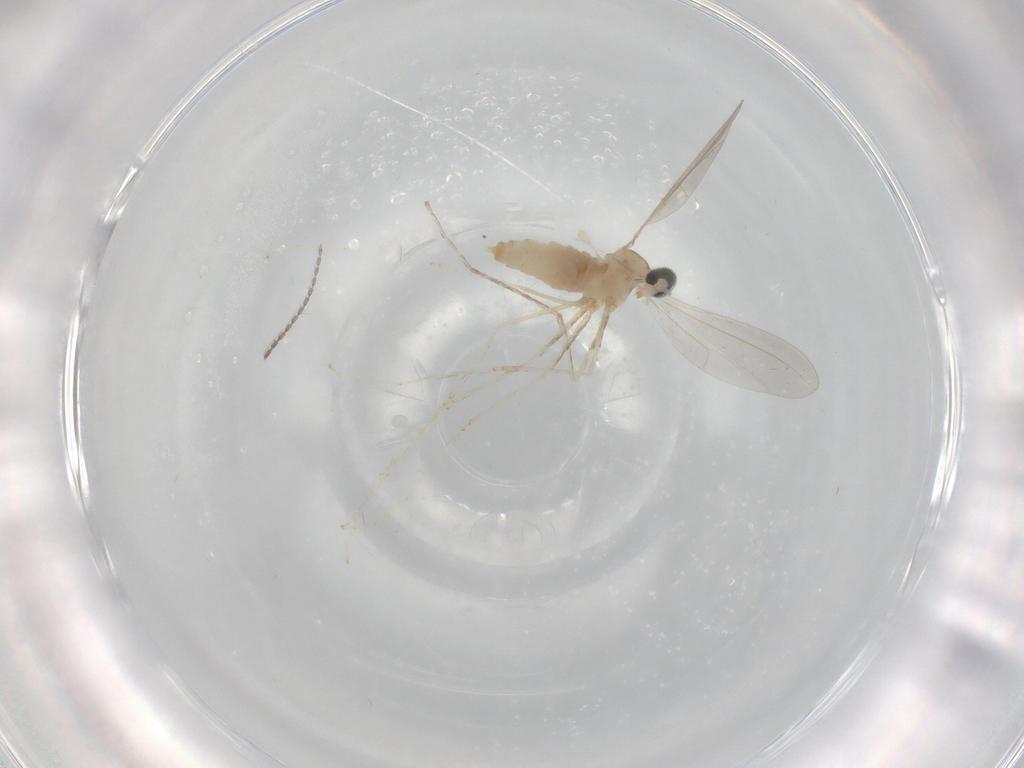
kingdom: Animalia
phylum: Arthropoda
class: Insecta
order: Diptera
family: Cecidomyiidae
